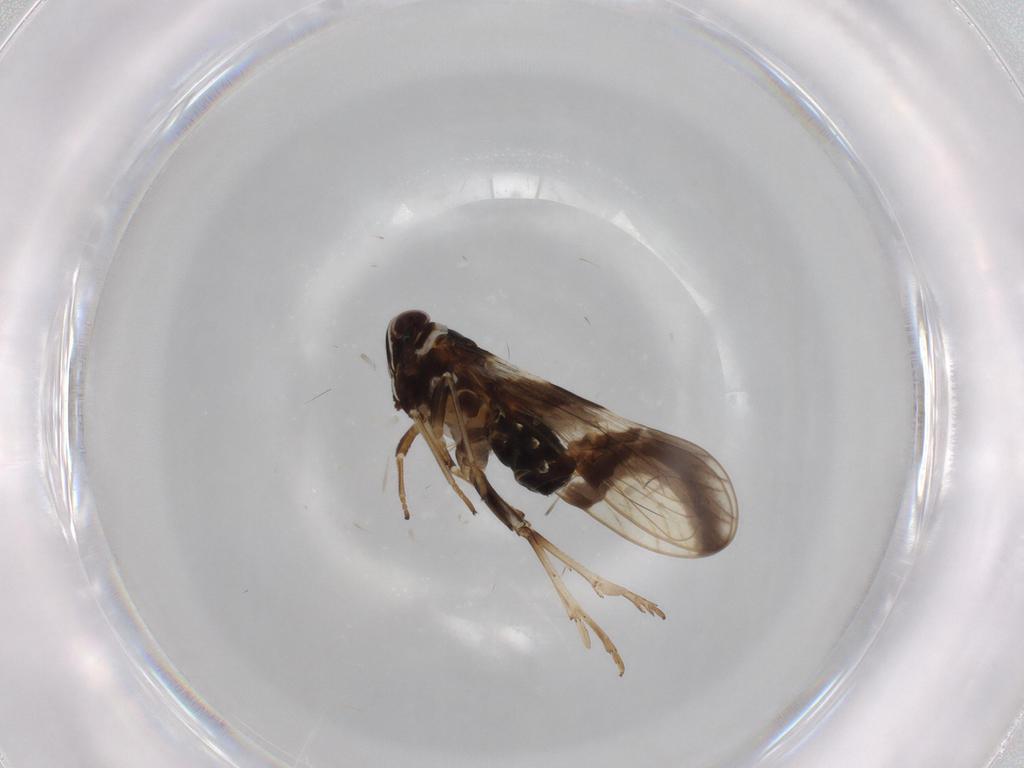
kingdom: Animalia
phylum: Arthropoda
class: Insecta
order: Hemiptera
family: Delphacidae
